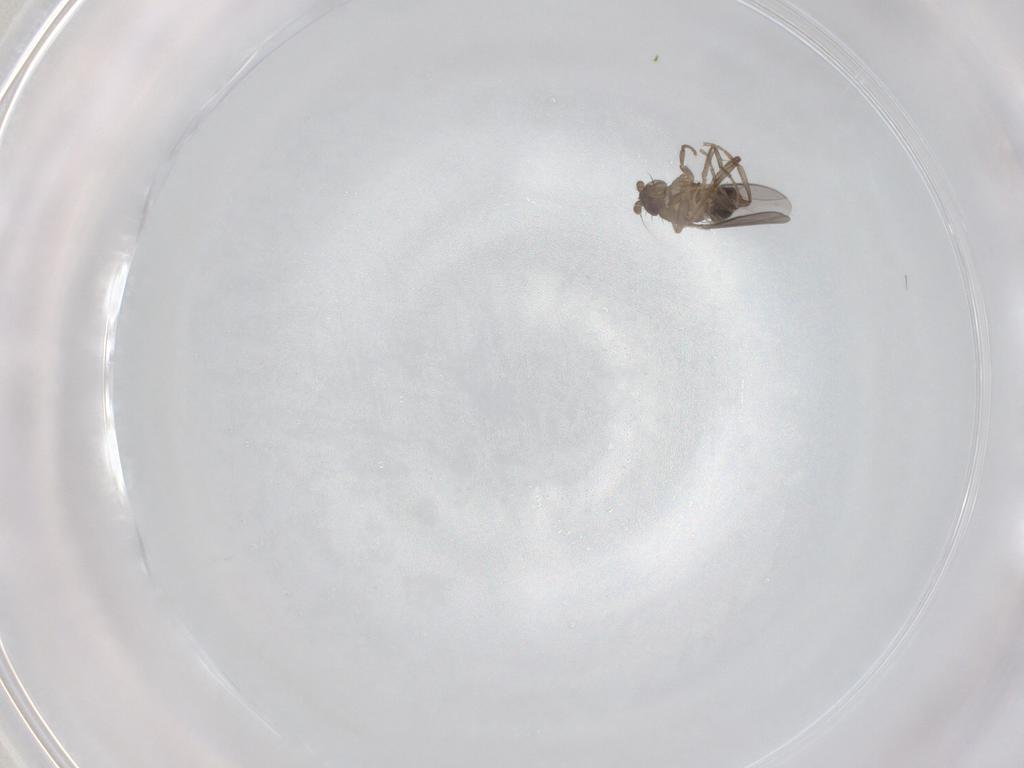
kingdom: Animalia
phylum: Arthropoda
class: Insecta
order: Diptera
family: Sphaeroceridae
